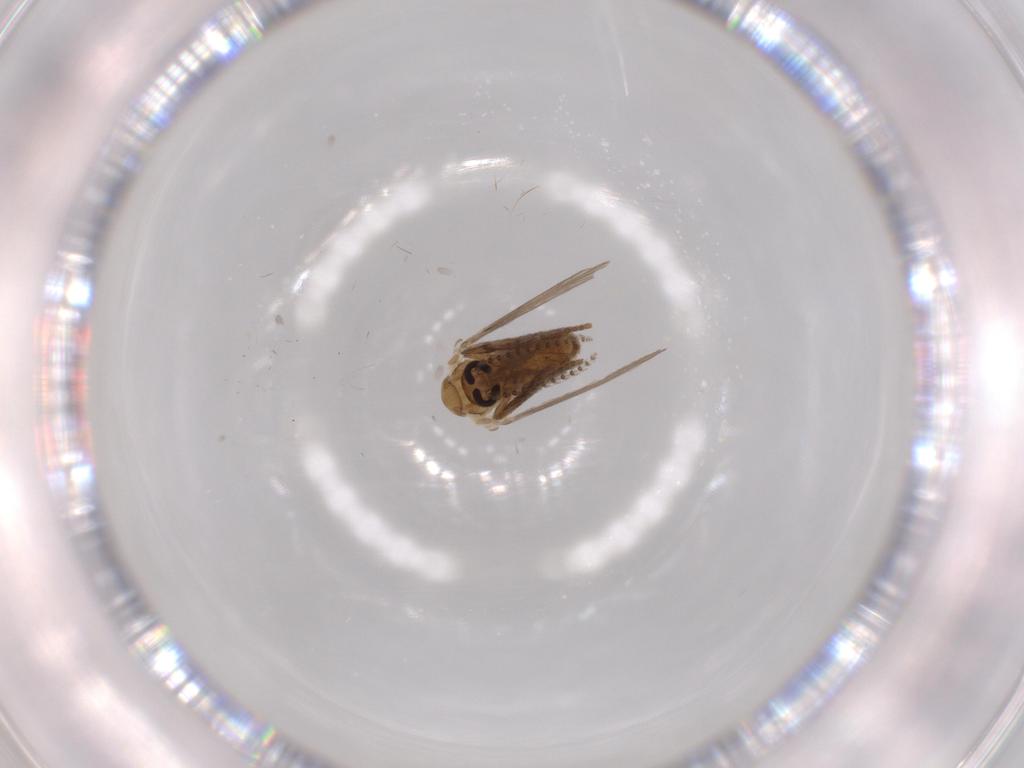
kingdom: Animalia
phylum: Arthropoda
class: Insecta
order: Diptera
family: Psychodidae
